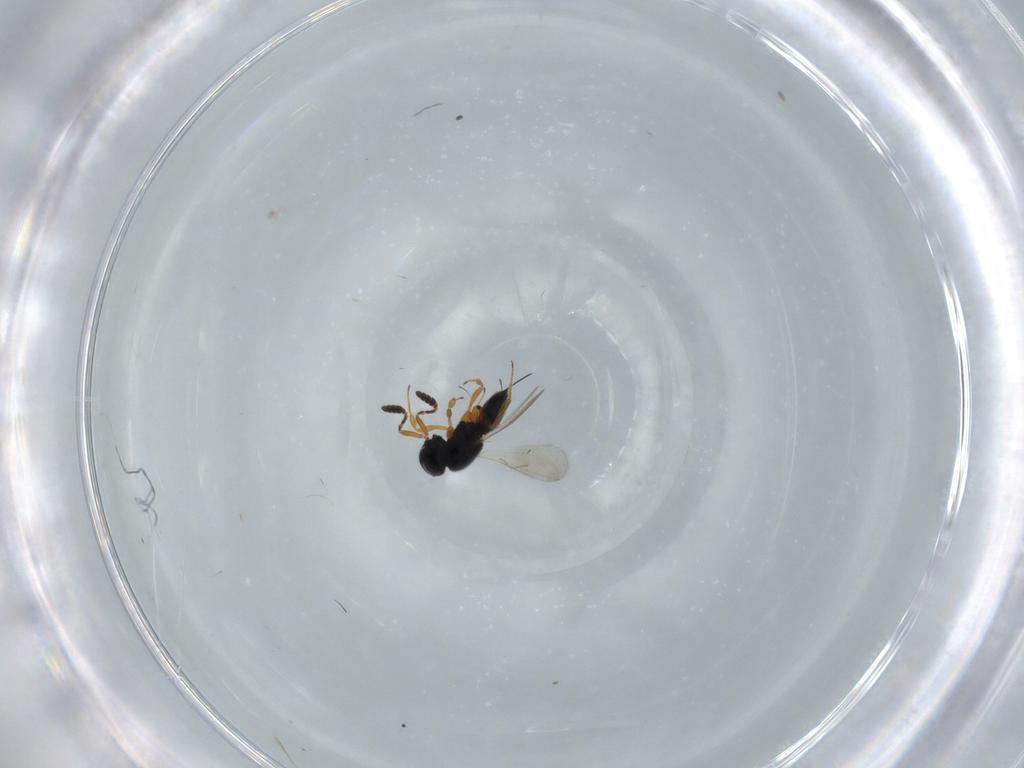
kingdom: Animalia
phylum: Arthropoda
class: Insecta
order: Hymenoptera
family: Scelionidae
